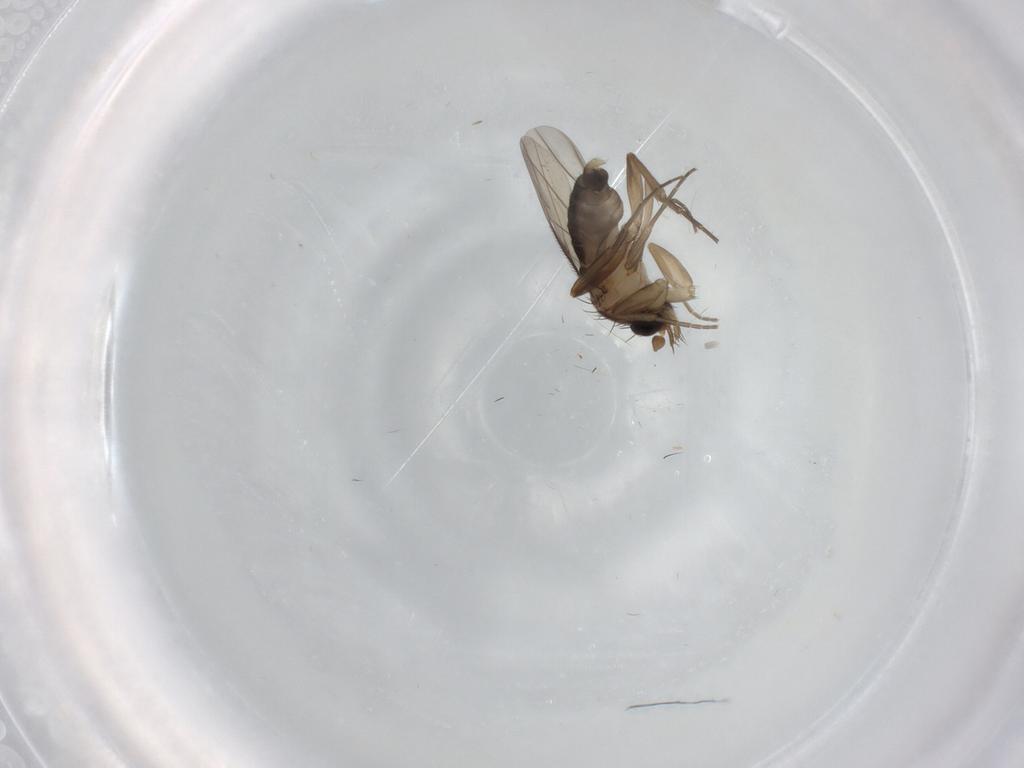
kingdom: Animalia
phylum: Arthropoda
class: Insecta
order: Diptera
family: Phoridae
